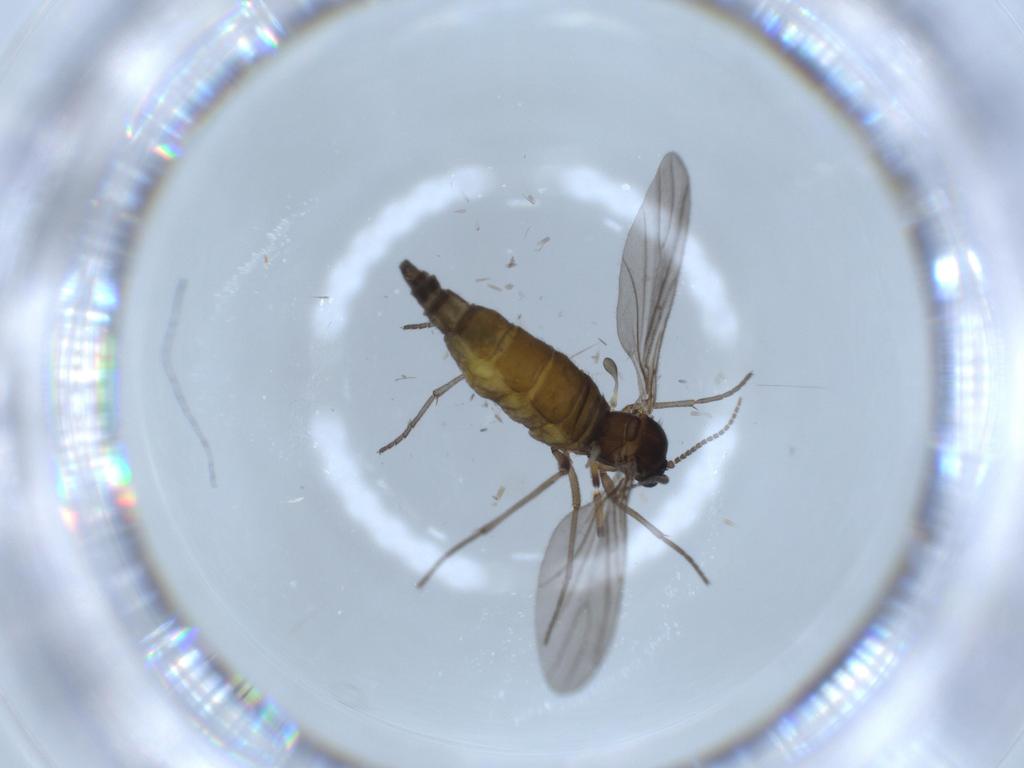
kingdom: Animalia
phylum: Arthropoda
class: Insecta
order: Diptera
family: Sciaridae
